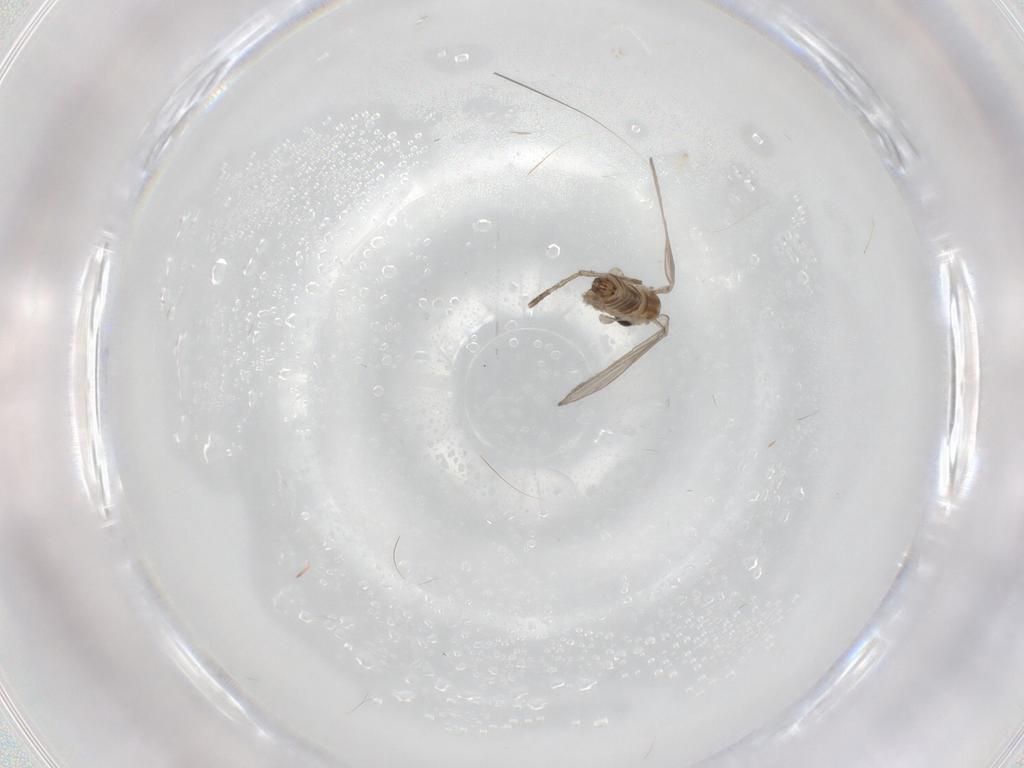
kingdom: Animalia
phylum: Arthropoda
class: Insecta
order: Diptera
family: Psychodidae
